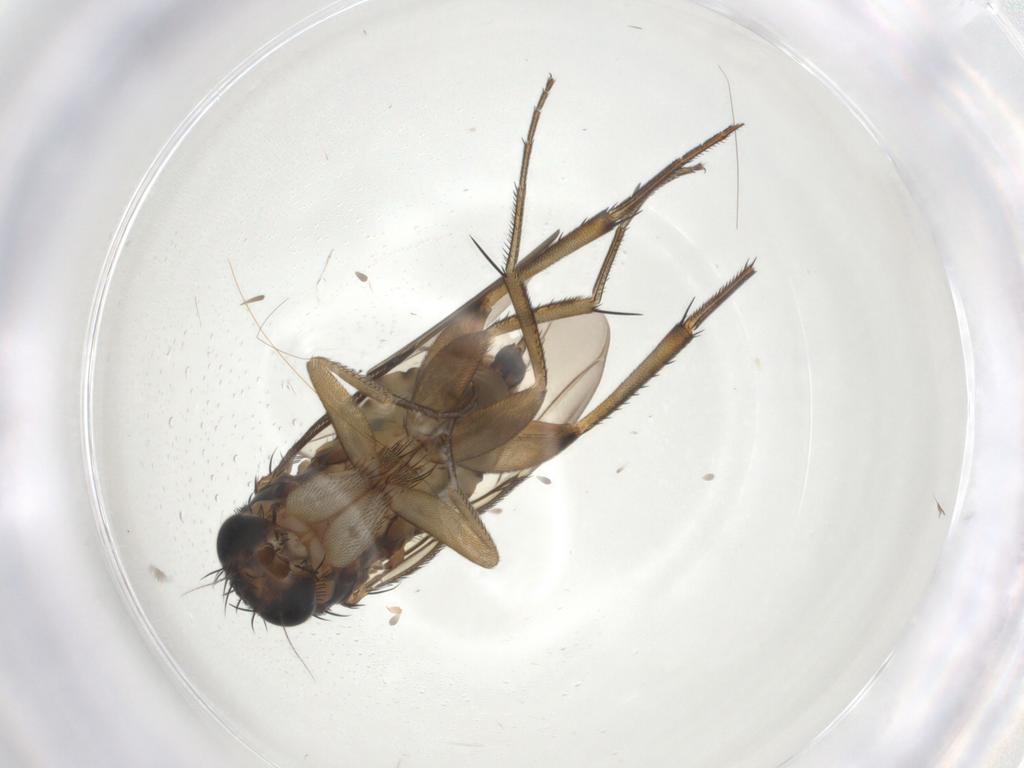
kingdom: Animalia
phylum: Arthropoda
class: Insecta
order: Diptera
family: Phoridae
